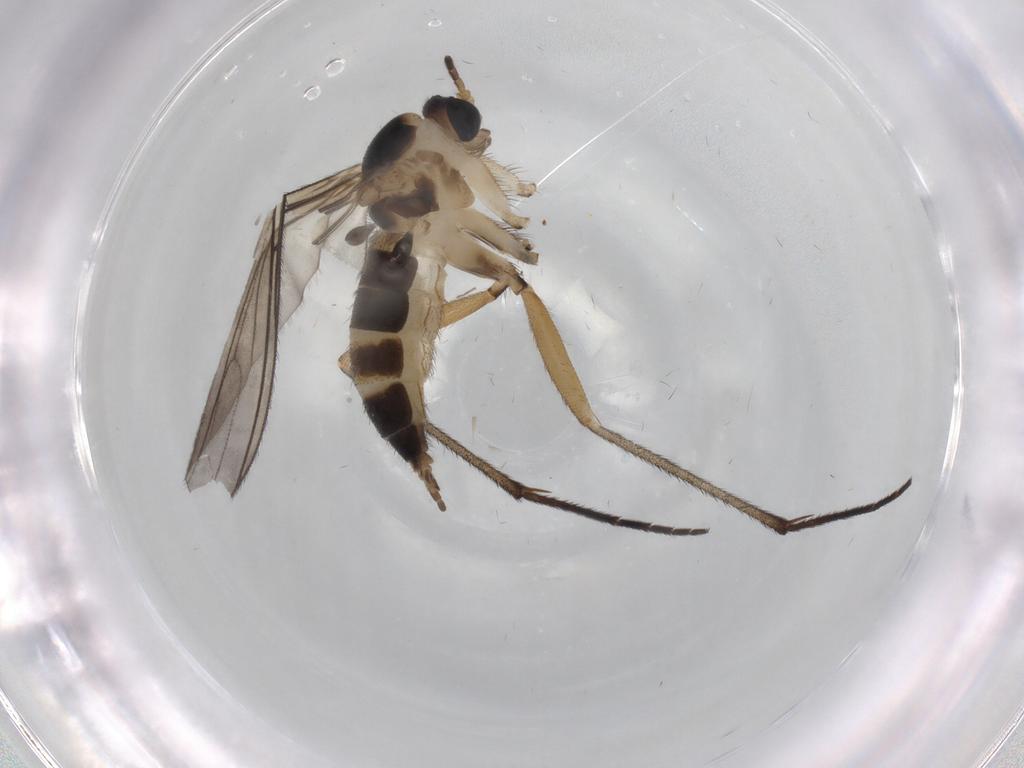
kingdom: Animalia
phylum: Arthropoda
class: Insecta
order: Diptera
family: Phoridae
